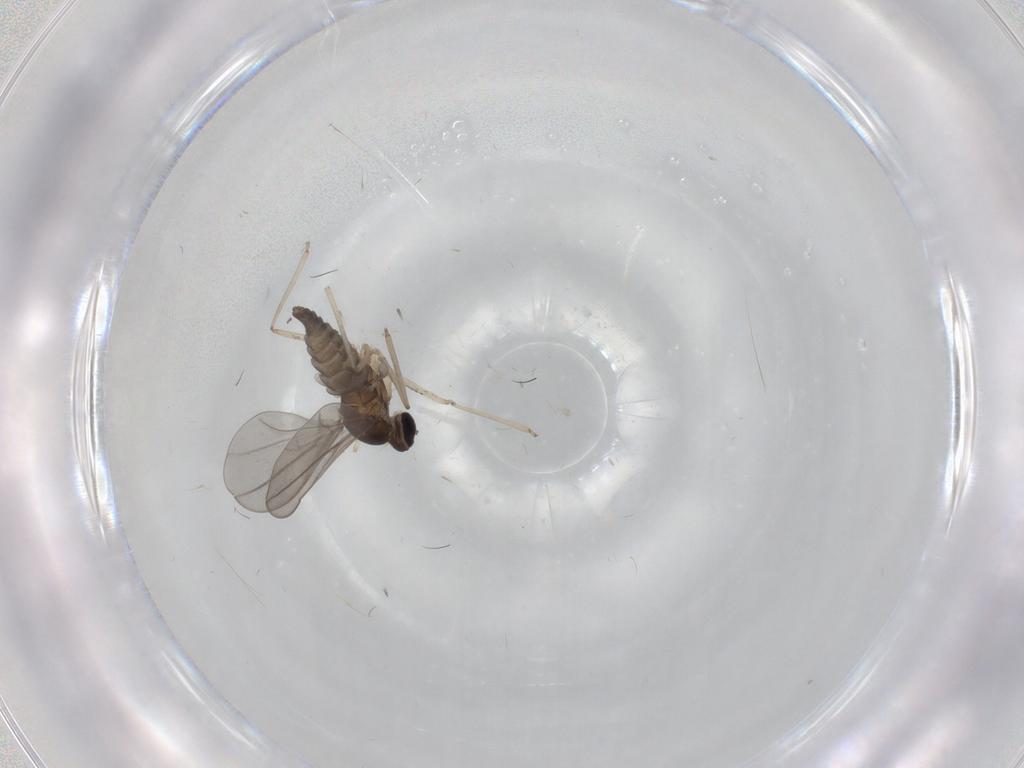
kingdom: Animalia
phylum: Arthropoda
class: Insecta
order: Diptera
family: Cecidomyiidae
